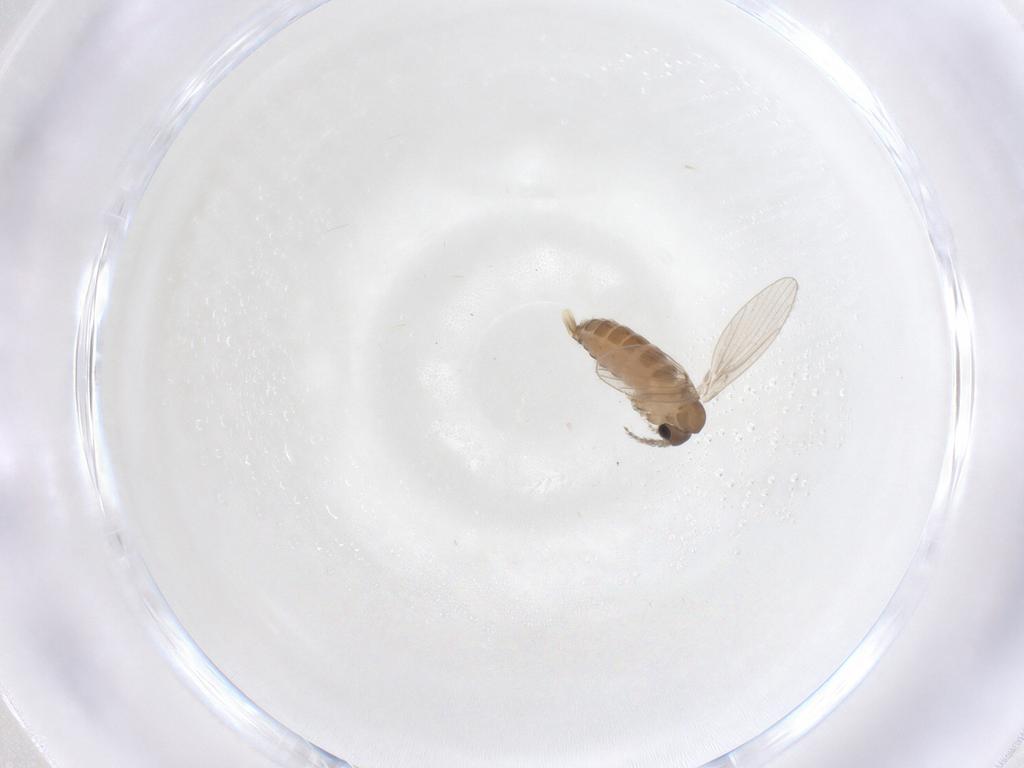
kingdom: Animalia
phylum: Arthropoda
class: Insecta
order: Diptera
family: Psychodidae
